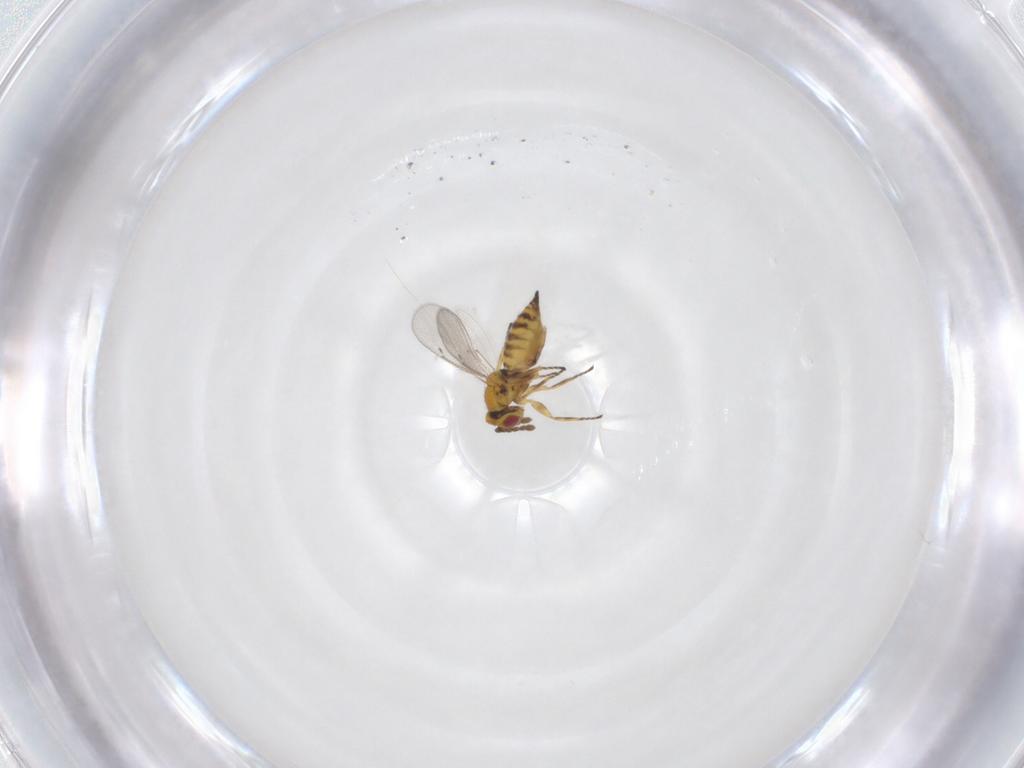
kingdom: Animalia
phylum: Arthropoda
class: Insecta
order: Hymenoptera
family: Eulophidae
